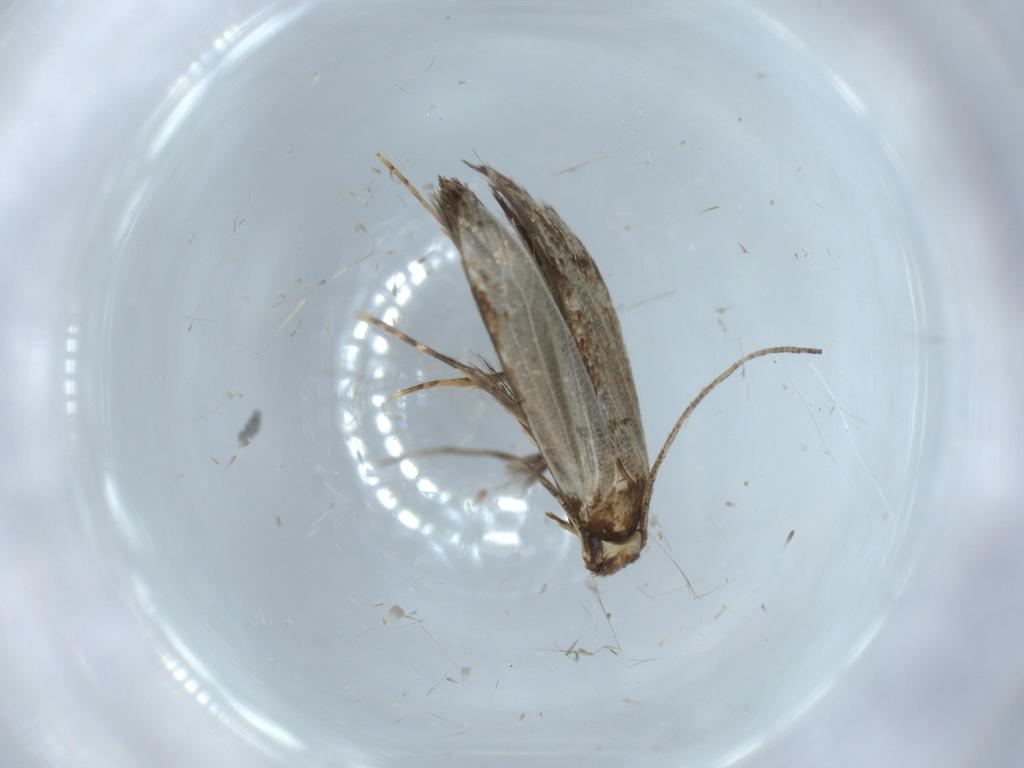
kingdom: Animalia
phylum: Arthropoda
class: Insecta
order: Lepidoptera
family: Tineidae
